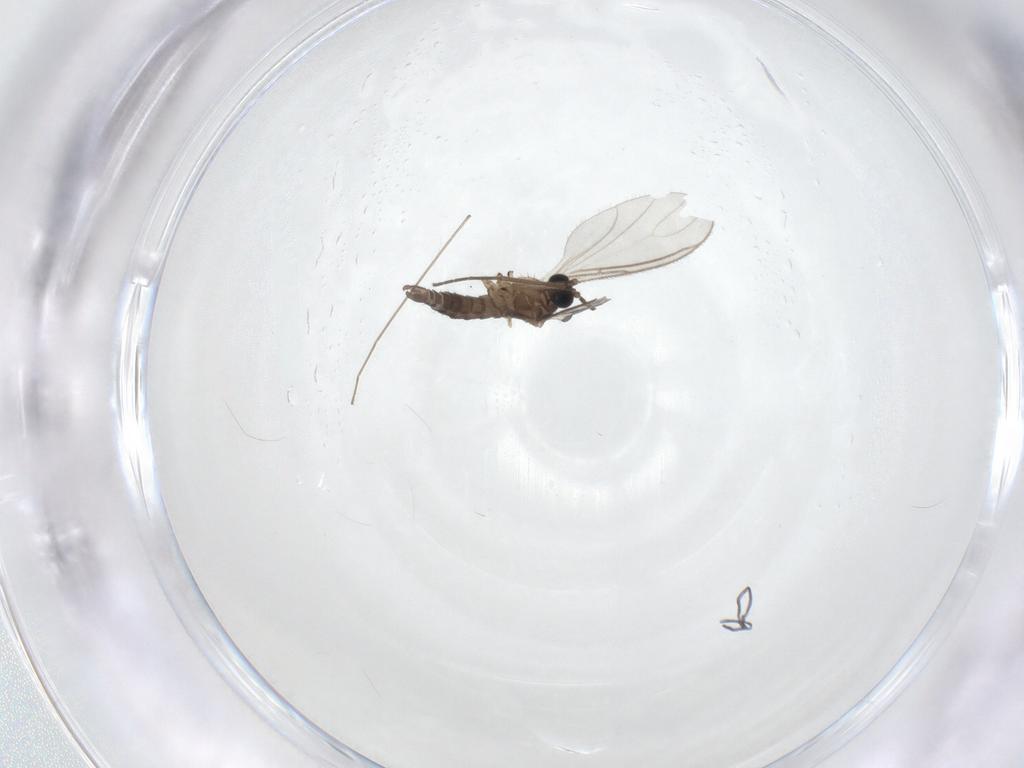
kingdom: Animalia
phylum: Arthropoda
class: Insecta
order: Diptera
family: Sciaridae
